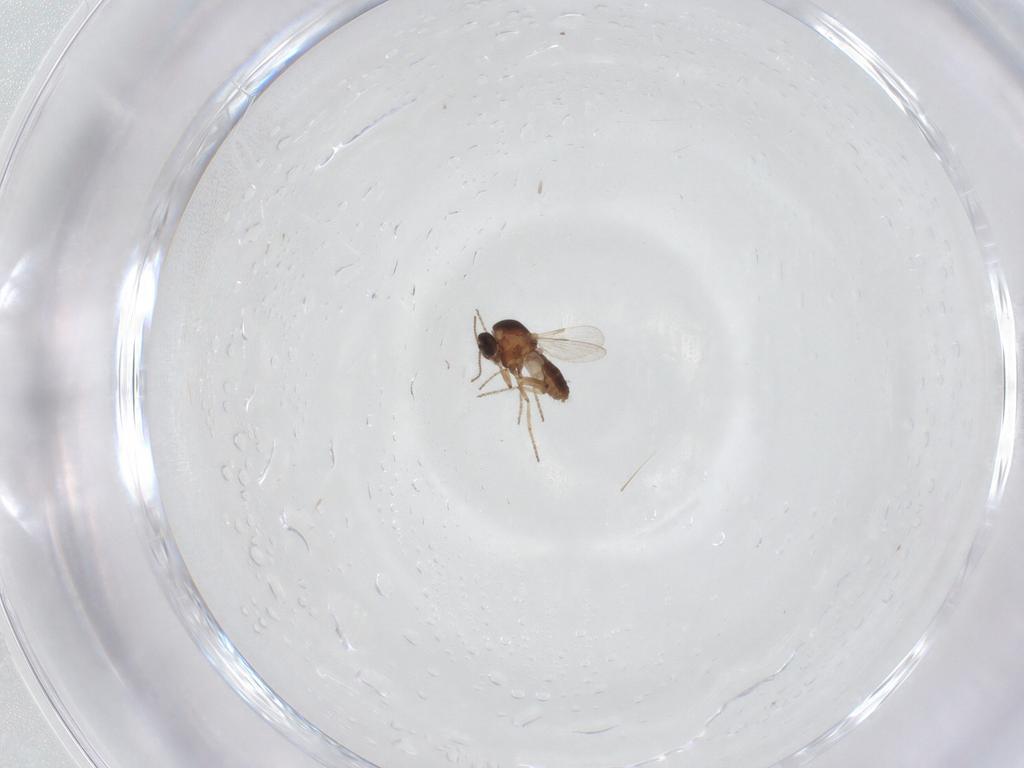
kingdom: Animalia
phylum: Arthropoda
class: Insecta
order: Diptera
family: Ceratopogonidae
